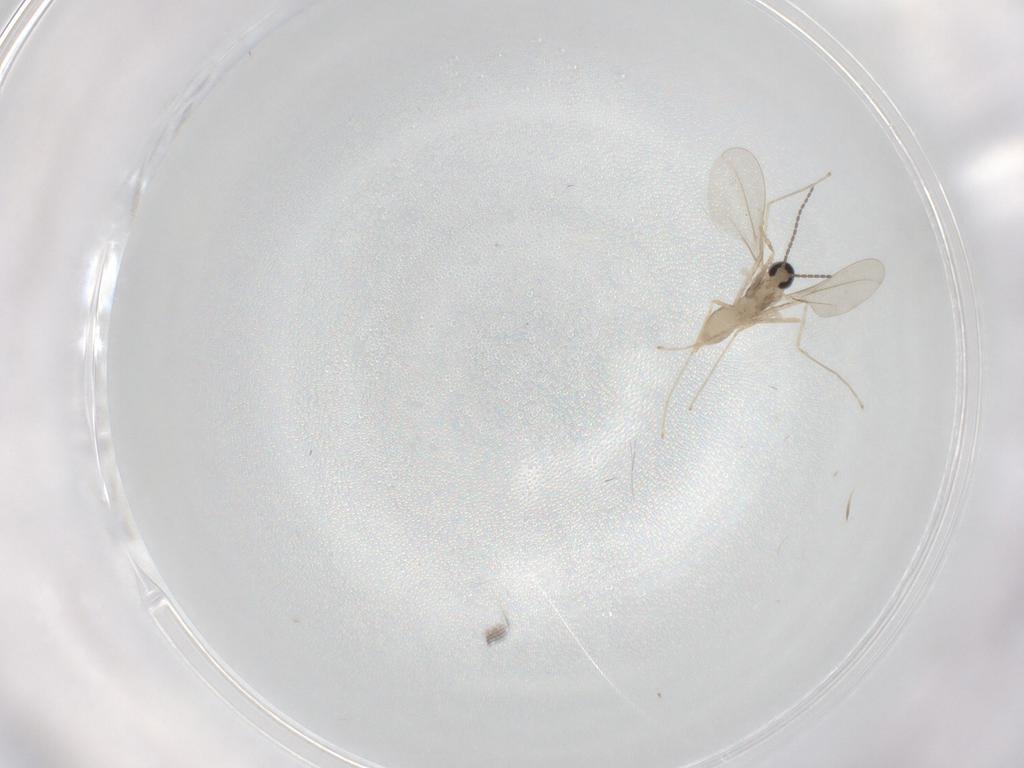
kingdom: Animalia
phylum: Arthropoda
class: Insecta
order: Diptera
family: Cecidomyiidae
